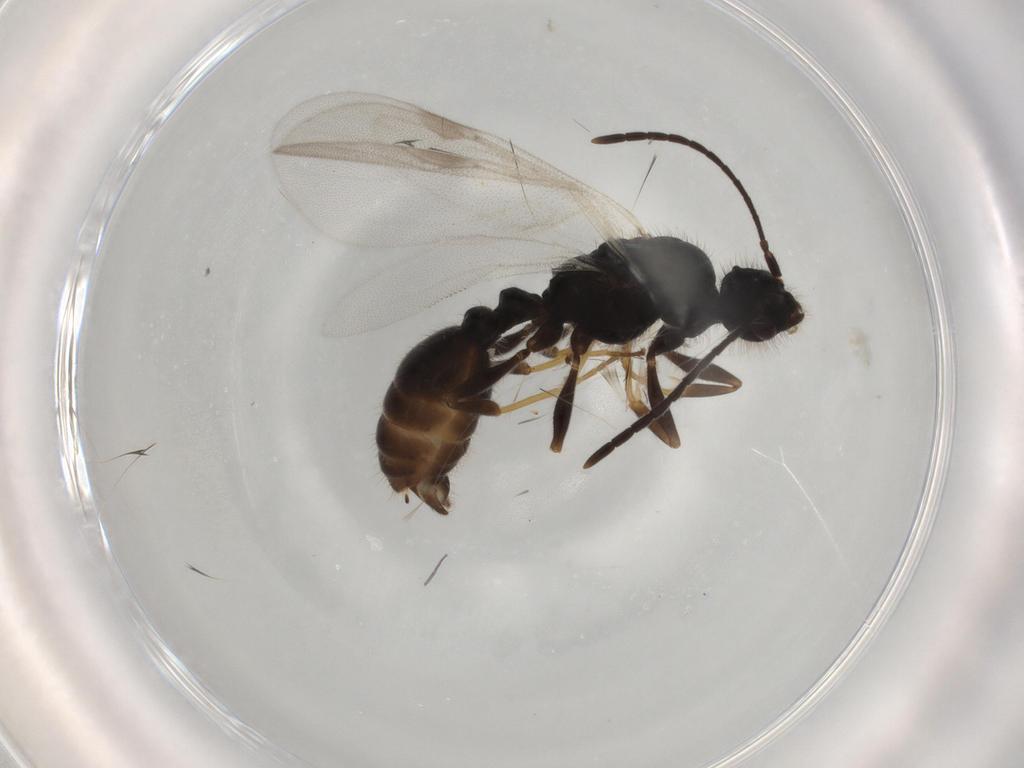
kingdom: Animalia
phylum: Arthropoda
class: Insecta
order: Hymenoptera
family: Formicidae
